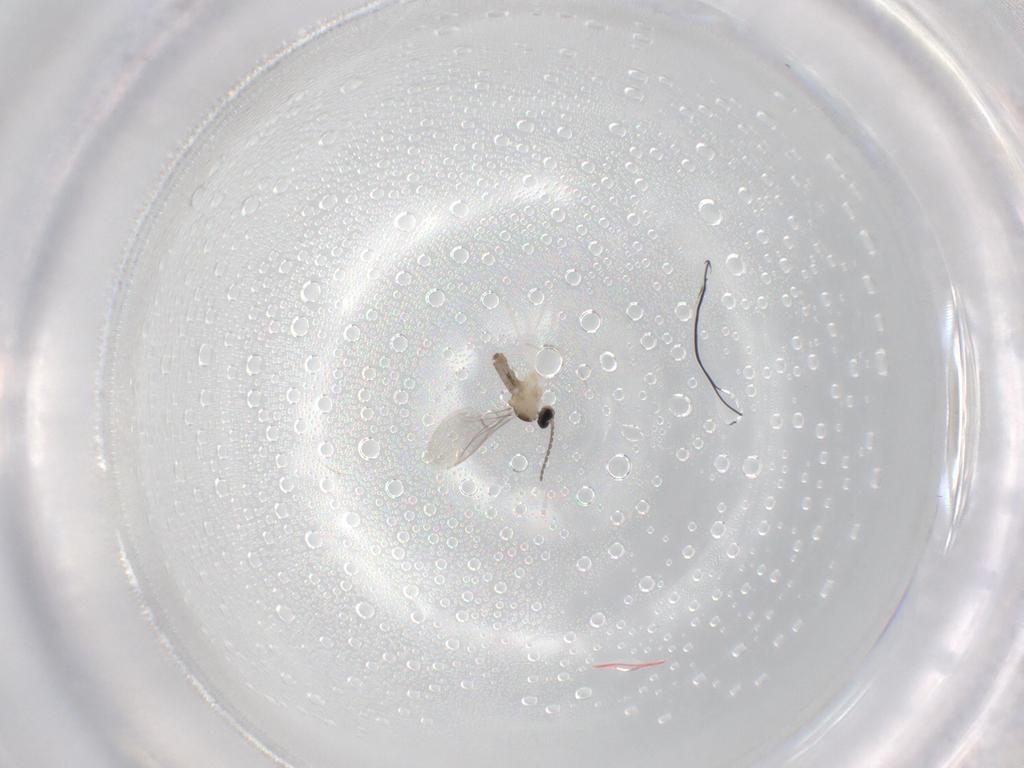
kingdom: Animalia
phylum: Arthropoda
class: Insecta
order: Diptera
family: Cecidomyiidae
